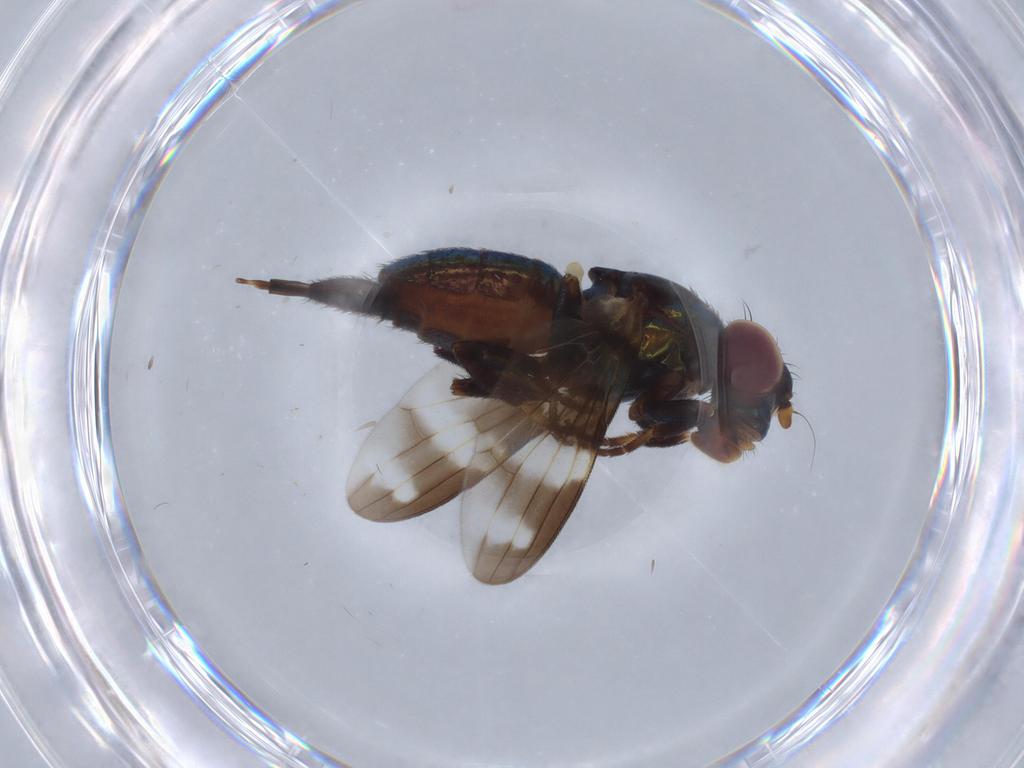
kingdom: Animalia
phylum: Arthropoda
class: Insecta
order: Diptera
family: Ulidiidae
